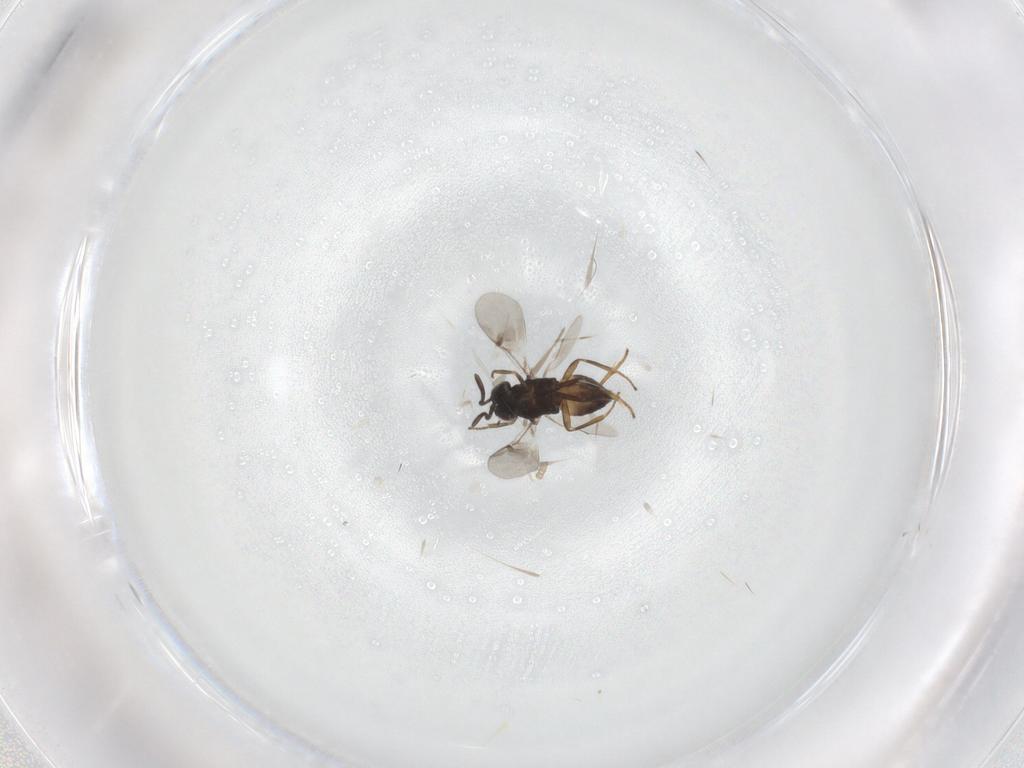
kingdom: Animalia
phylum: Arthropoda
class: Insecta
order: Hymenoptera
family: Encyrtidae
